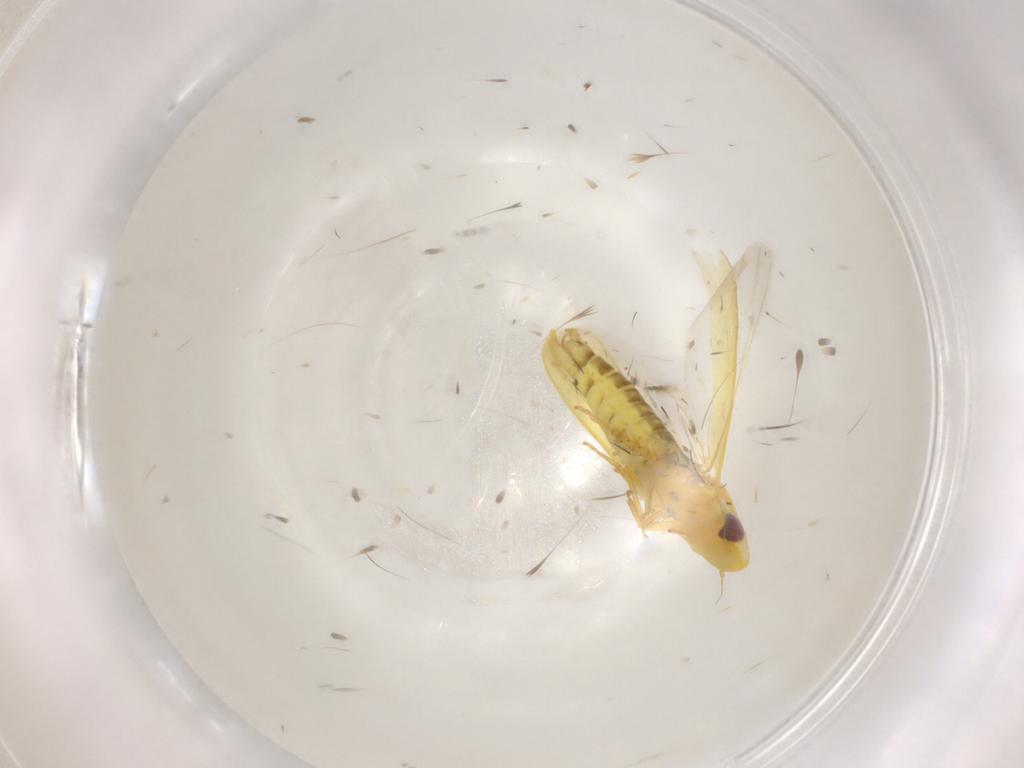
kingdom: Animalia
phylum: Arthropoda
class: Insecta
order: Hemiptera
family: Cicadellidae
